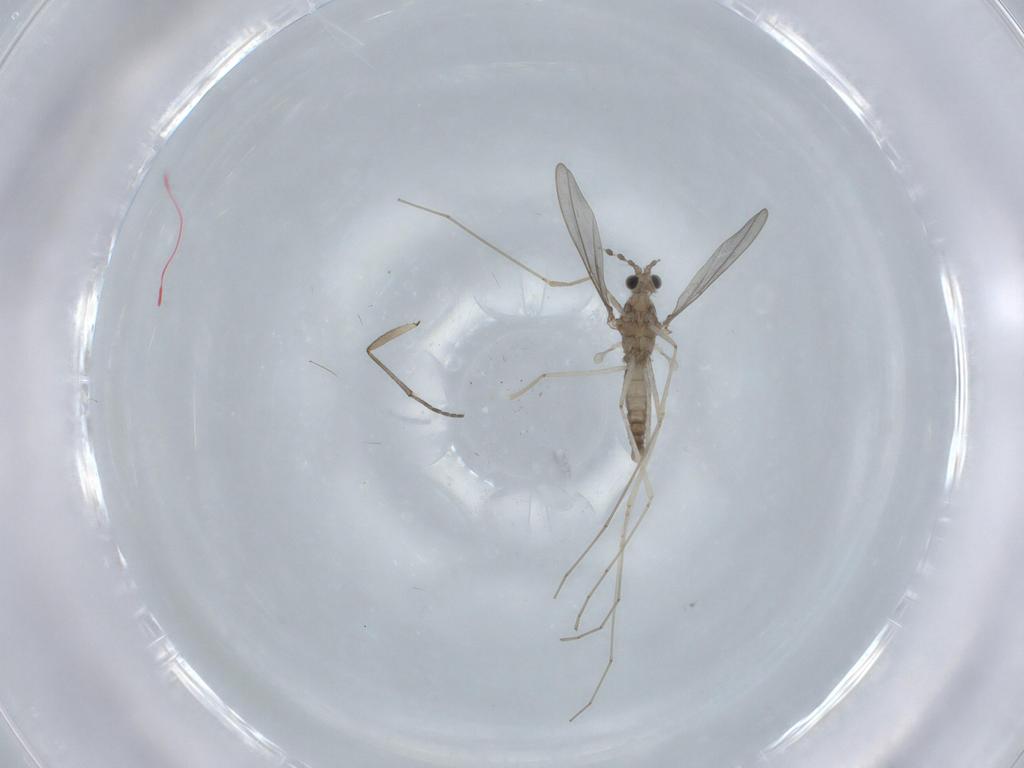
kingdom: Animalia
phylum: Arthropoda
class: Insecta
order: Diptera
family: Cecidomyiidae
